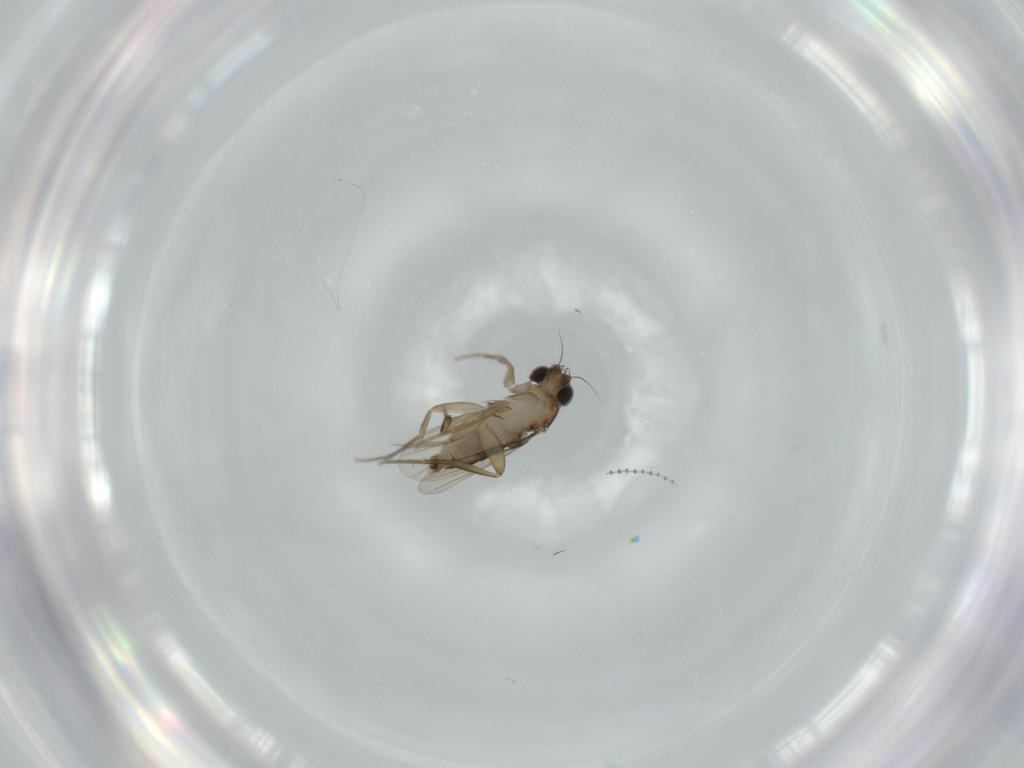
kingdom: Animalia
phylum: Arthropoda
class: Insecta
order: Diptera
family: Phoridae
